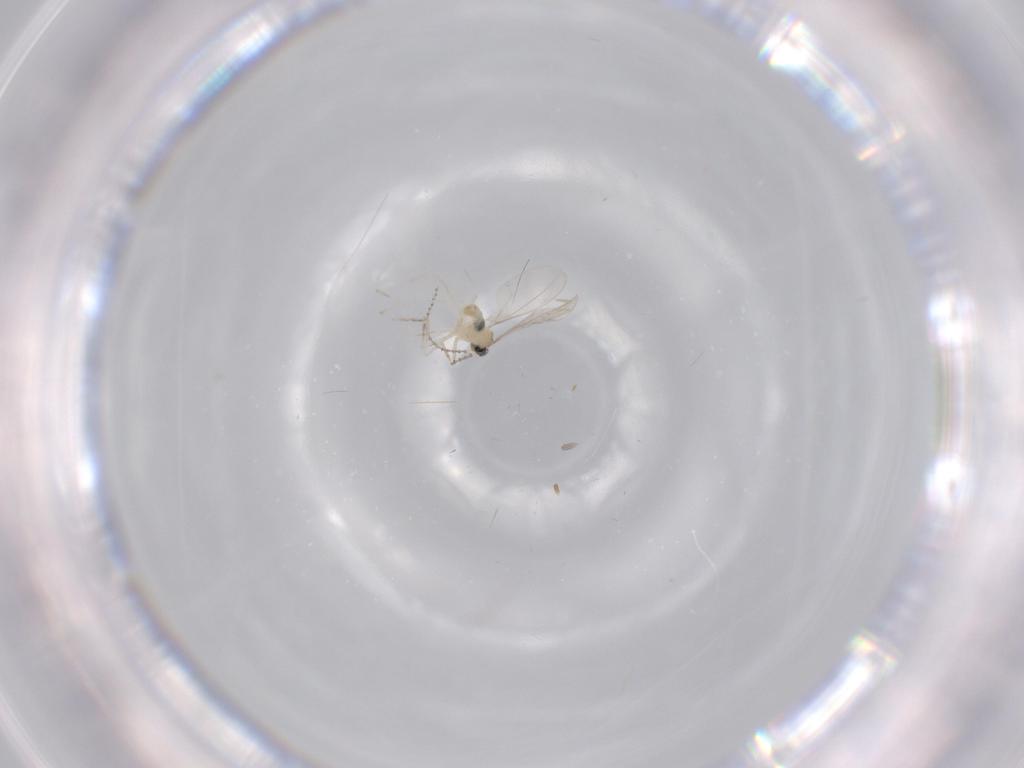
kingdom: Animalia
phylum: Arthropoda
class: Insecta
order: Diptera
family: Cecidomyiidae
